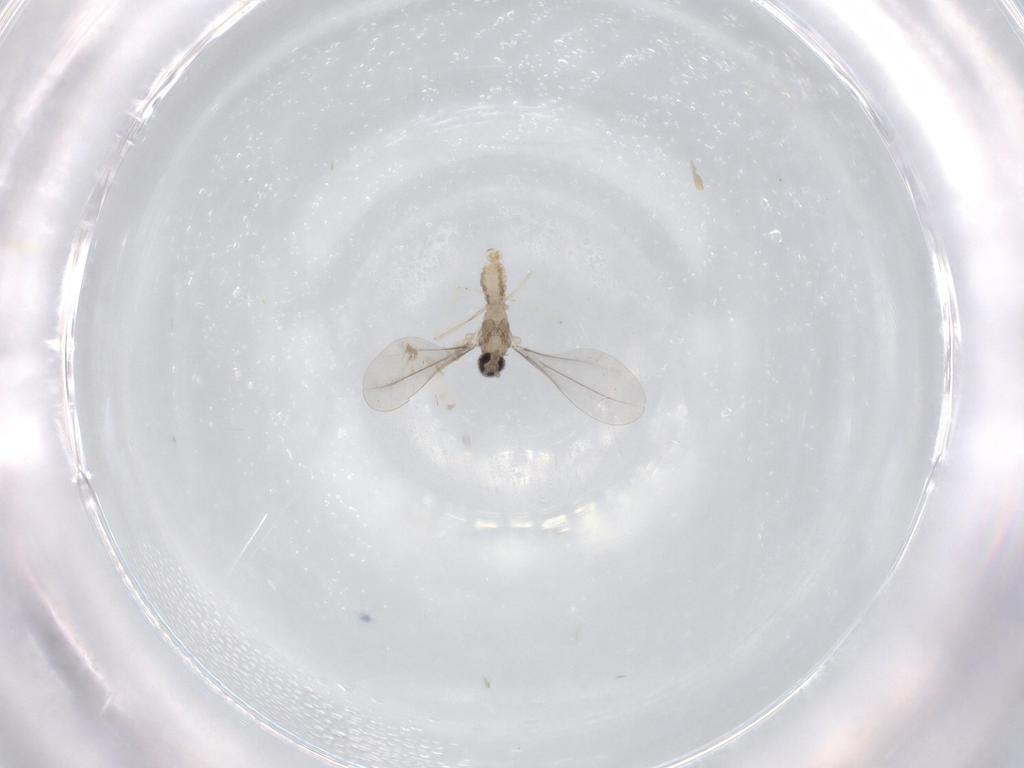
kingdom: Animalia
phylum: Arthropoda
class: Insecta
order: Diptera
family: Cecidomyiidae
